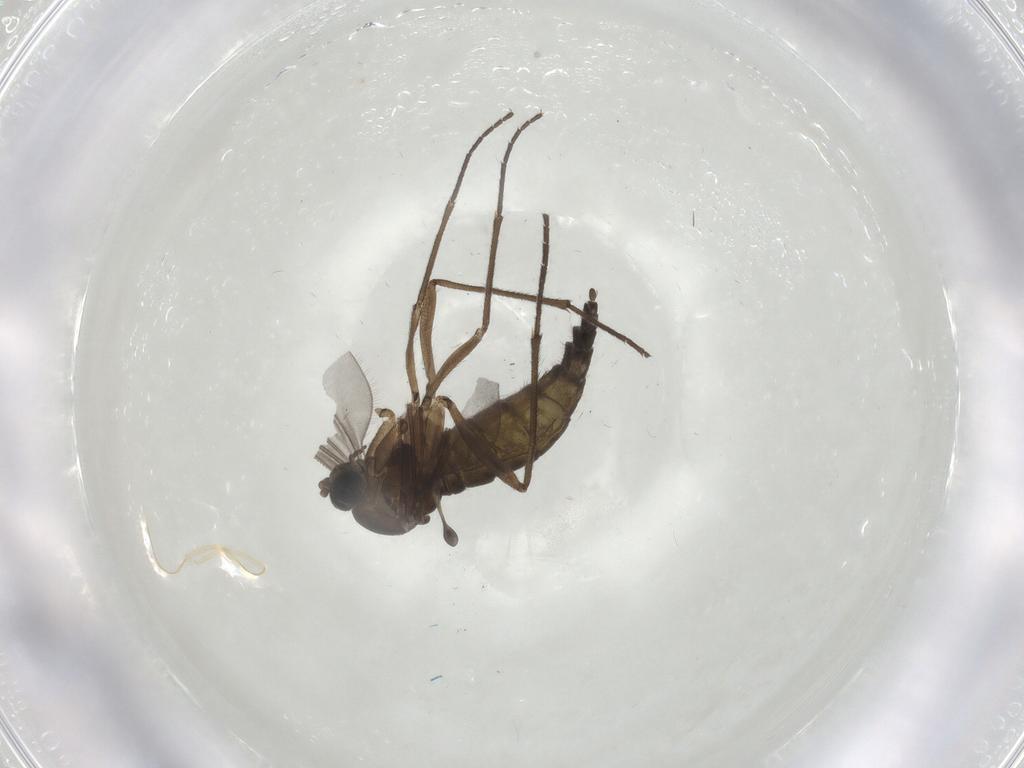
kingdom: Animalia
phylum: Arthropoda
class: Insecta
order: Diptera
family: Sciaridae
